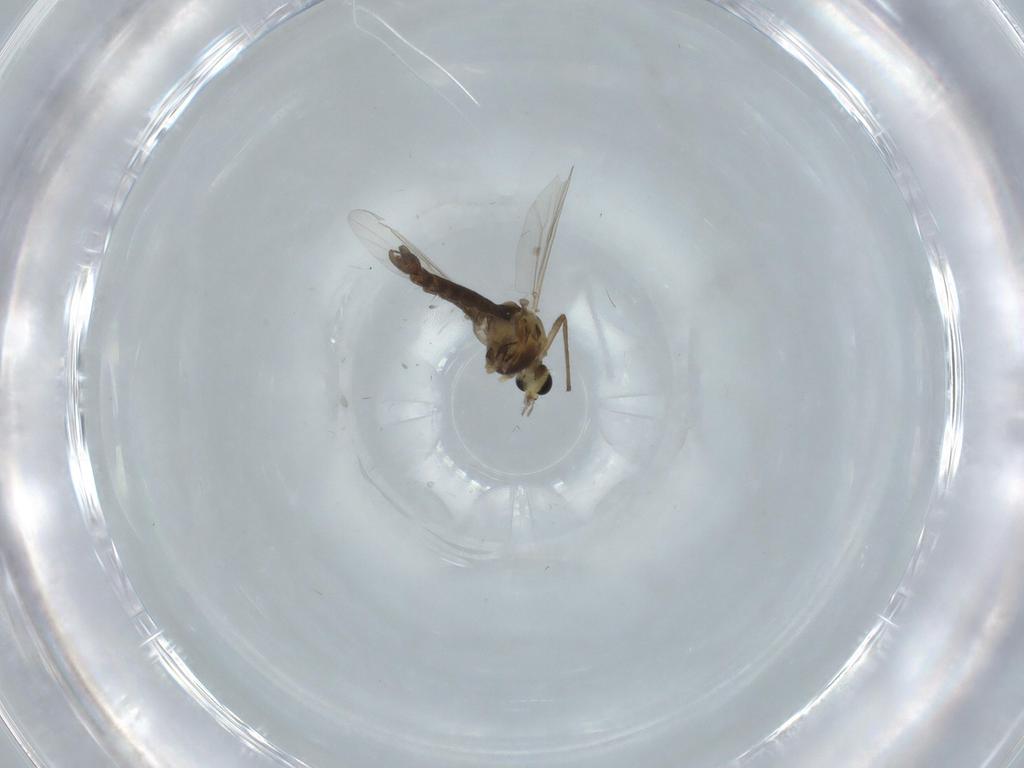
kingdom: Animalia
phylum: Arthropoda
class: Insecta
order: Diptera
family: Chironomidae
